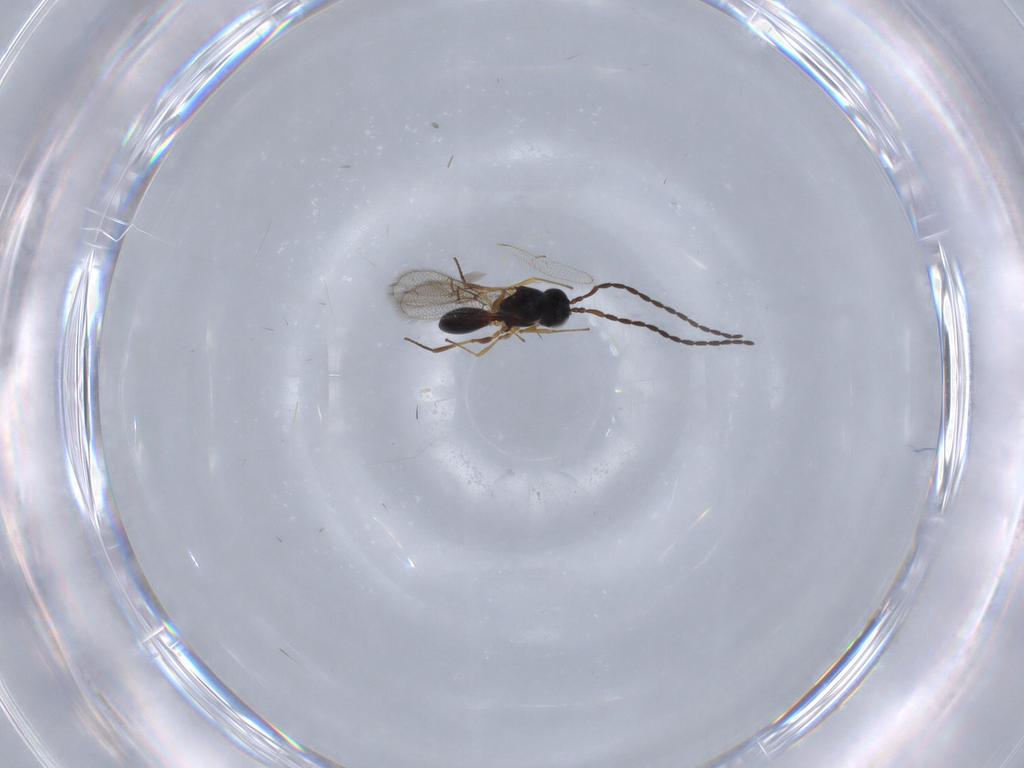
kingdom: Animalia
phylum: Arthropoda
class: Insecta
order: Hymenoptera
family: Figitidae
